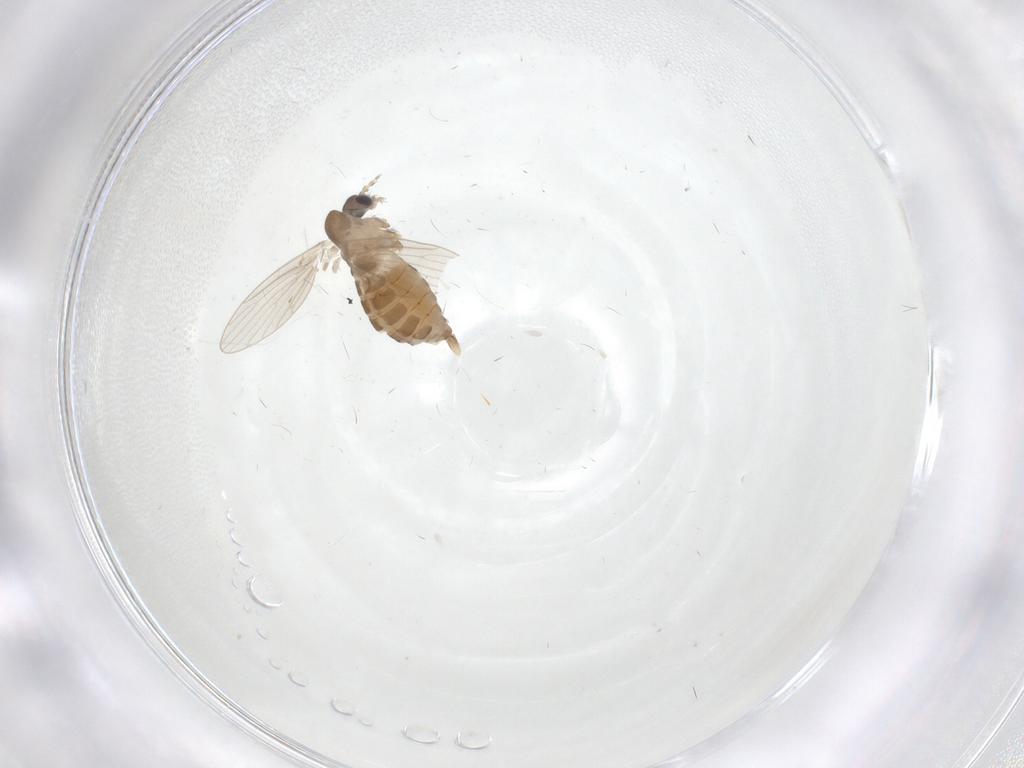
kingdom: Animalia
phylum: Arthropoda
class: Insecta
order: Diptera
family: Psychodidae
